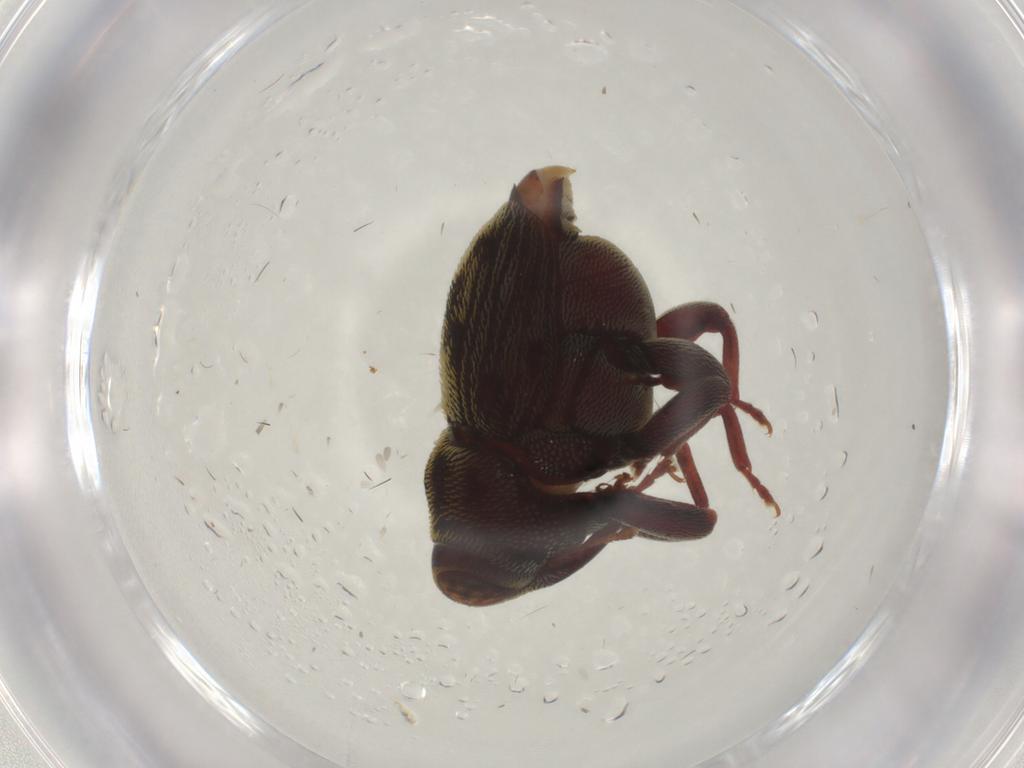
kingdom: Animalia
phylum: Arthropoda
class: Insecta
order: Coleoptera
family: Curculionidae
